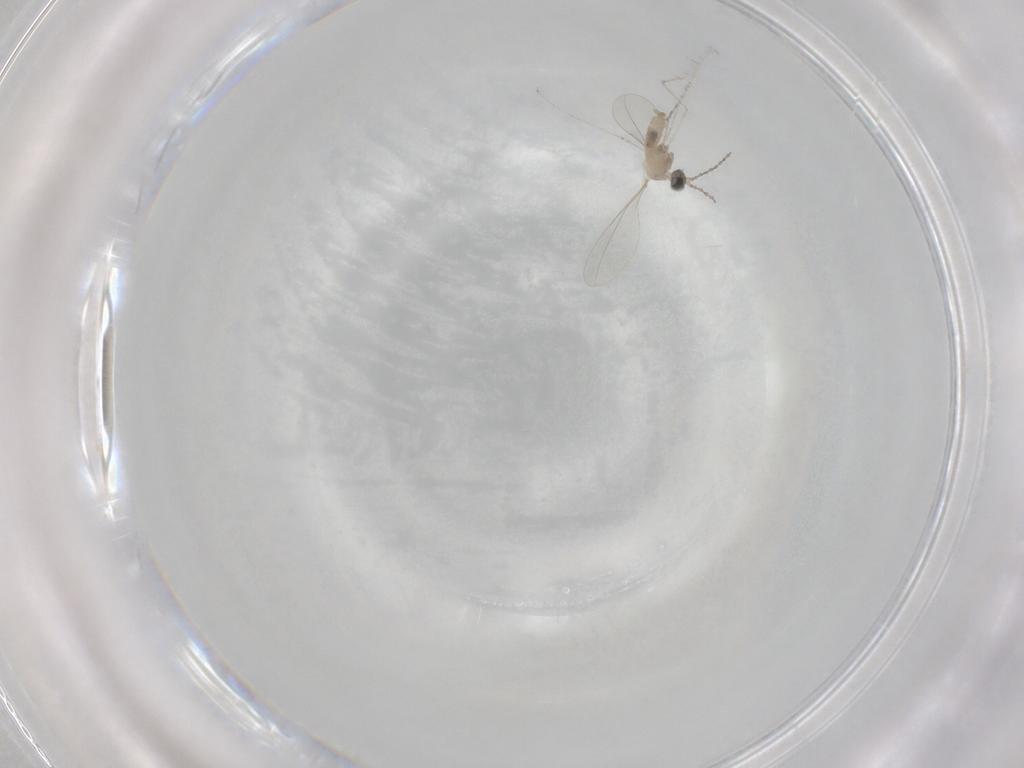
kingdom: Animalia
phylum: Arthropoda
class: Insecta
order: Diptera
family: Cecidomyiidae
